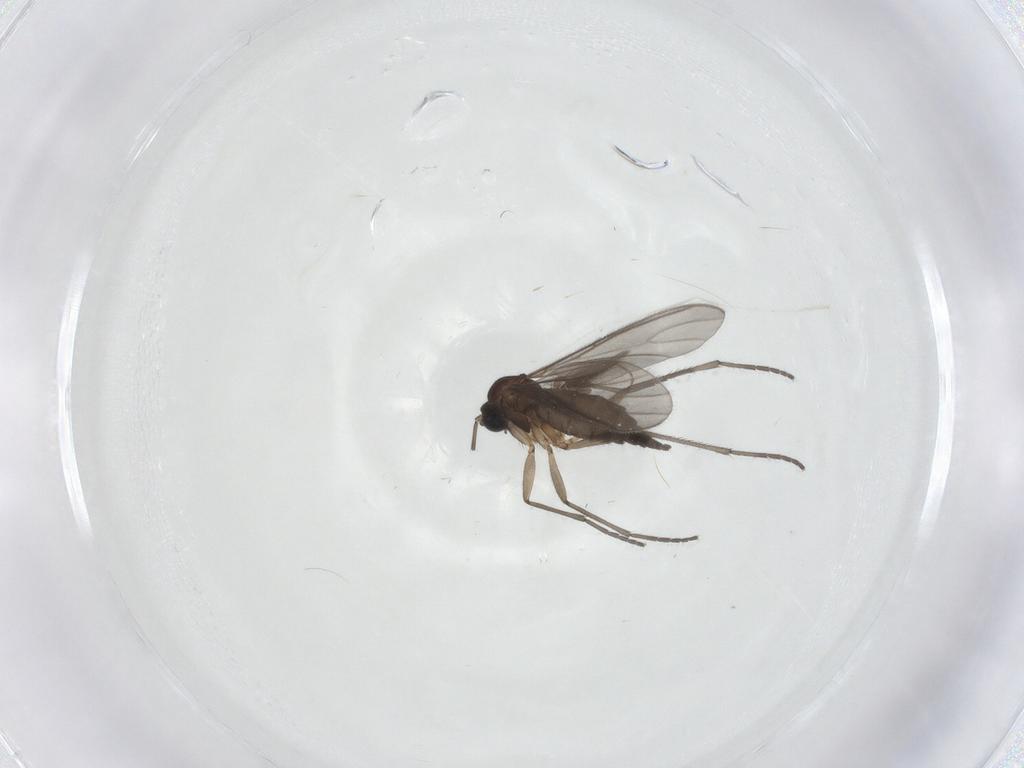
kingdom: Animalia
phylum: Arthropoda
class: Insecta
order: Diptera
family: Sciaridae
